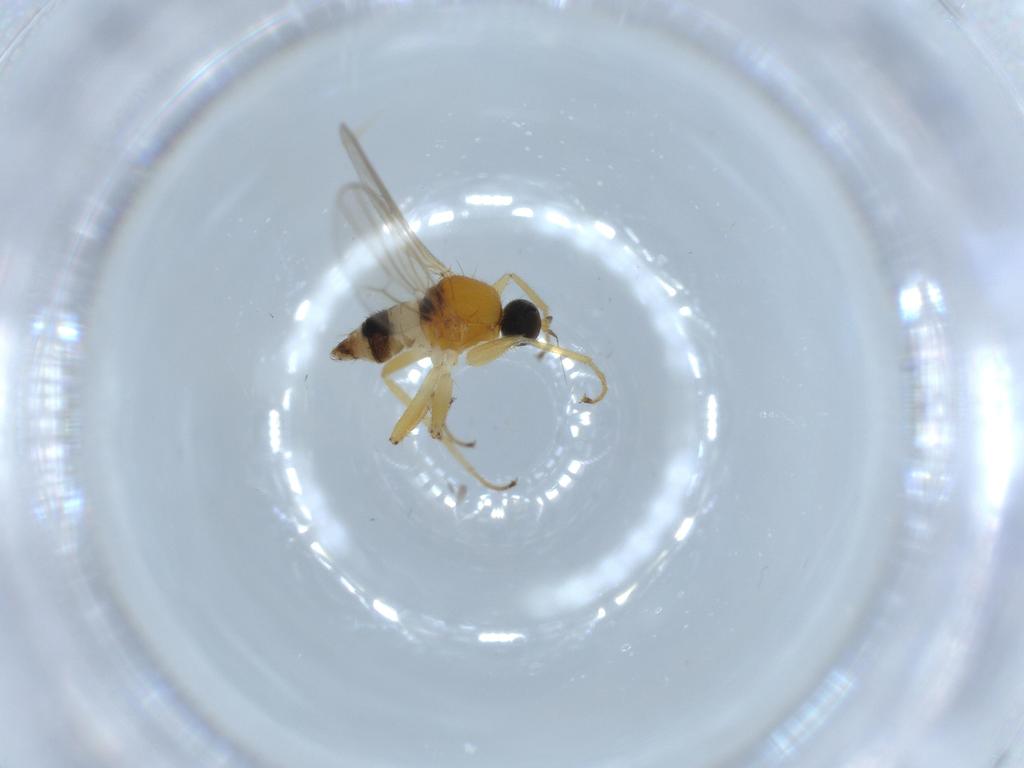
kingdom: Animalia
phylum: Arthropoda
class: Insecta
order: Diptera
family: Hybotidae
